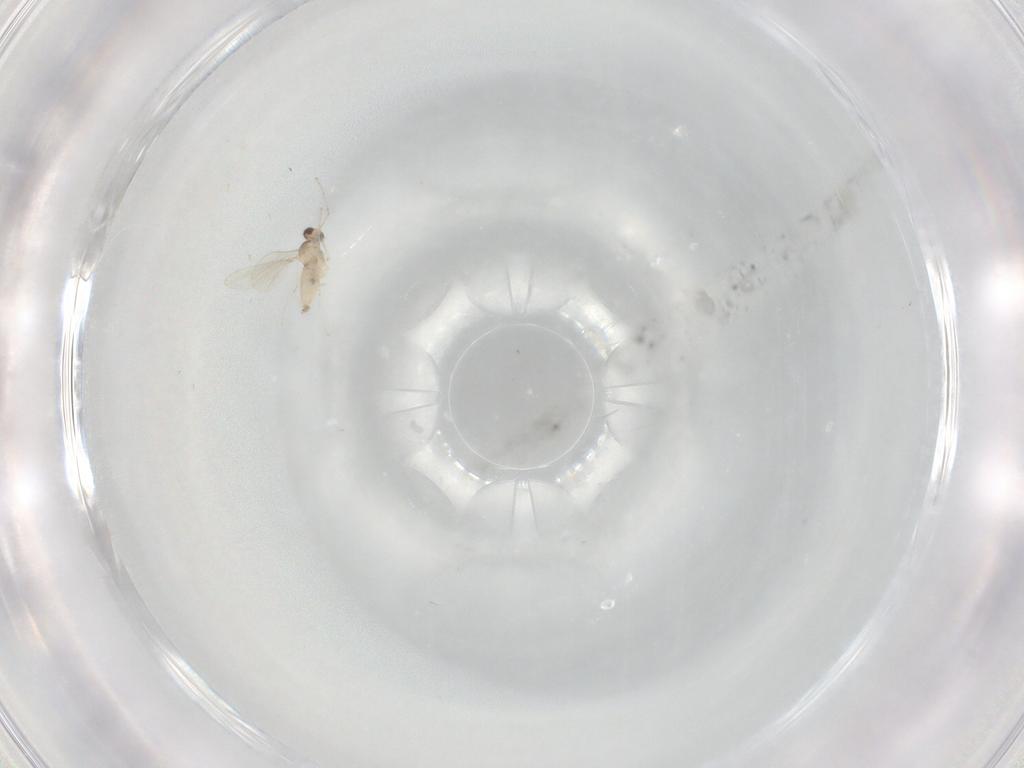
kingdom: Animalia
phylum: Arthropoda
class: Insecta
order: Diptera
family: Cecidomyiidae
